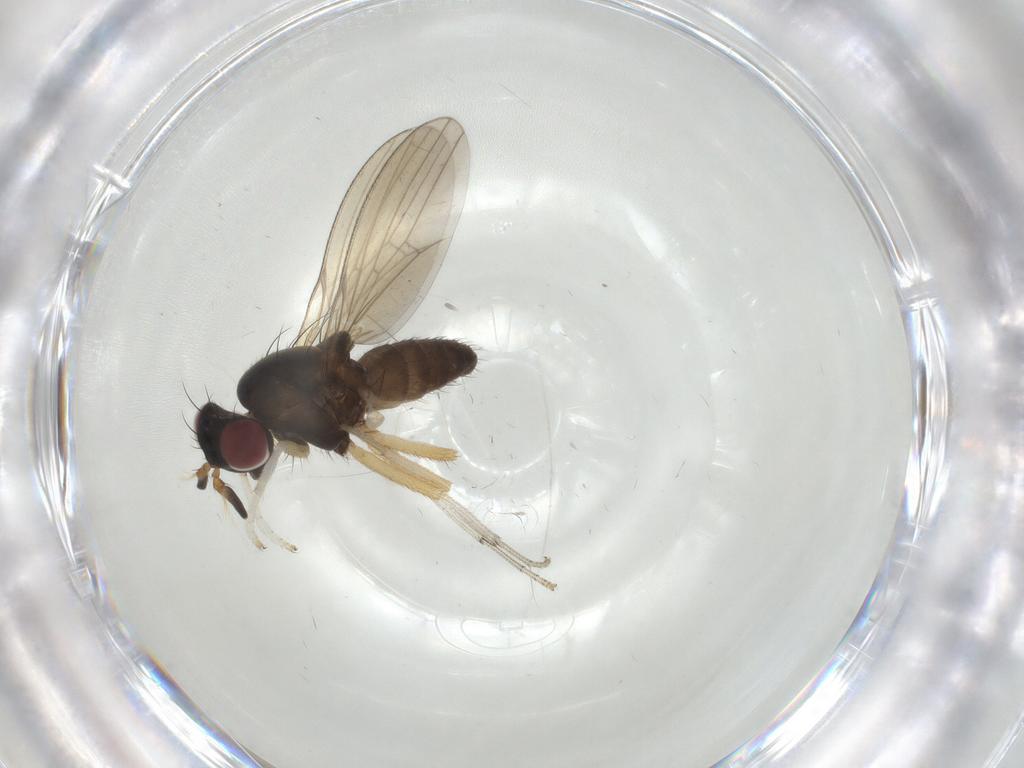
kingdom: Animalia
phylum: Arthropoda
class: Insecta
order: Diptera
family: Lauxaniidae
